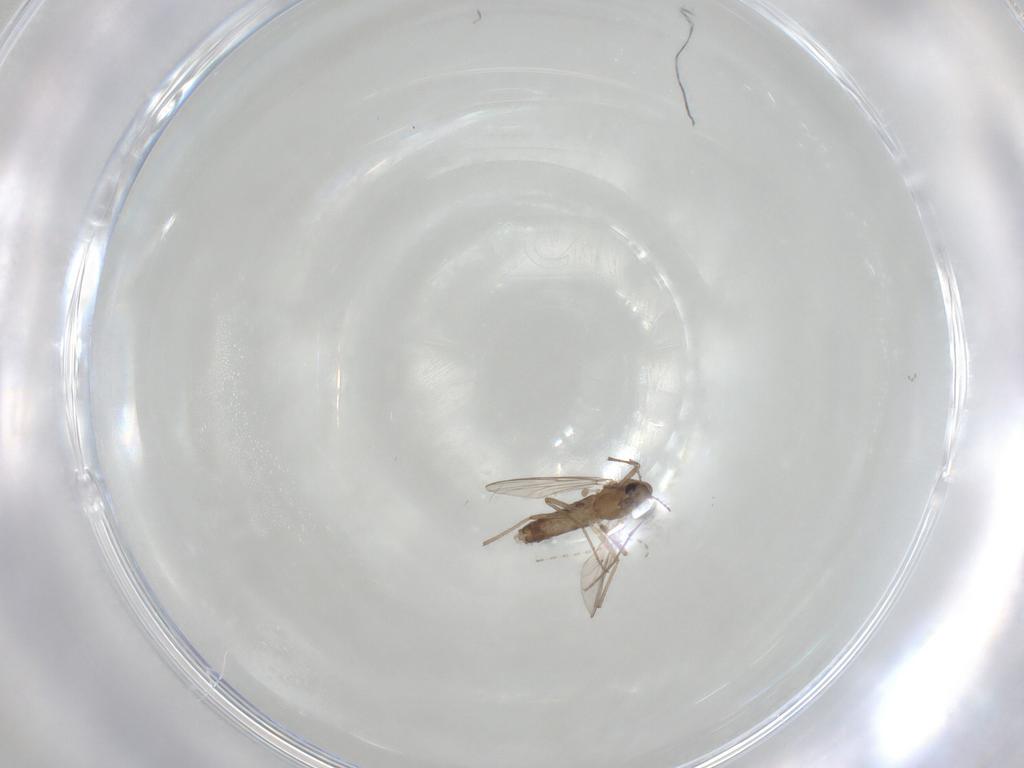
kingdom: Animalia
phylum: Arthropoda
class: Insecta
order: Diptera
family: Cecidomyiidae
